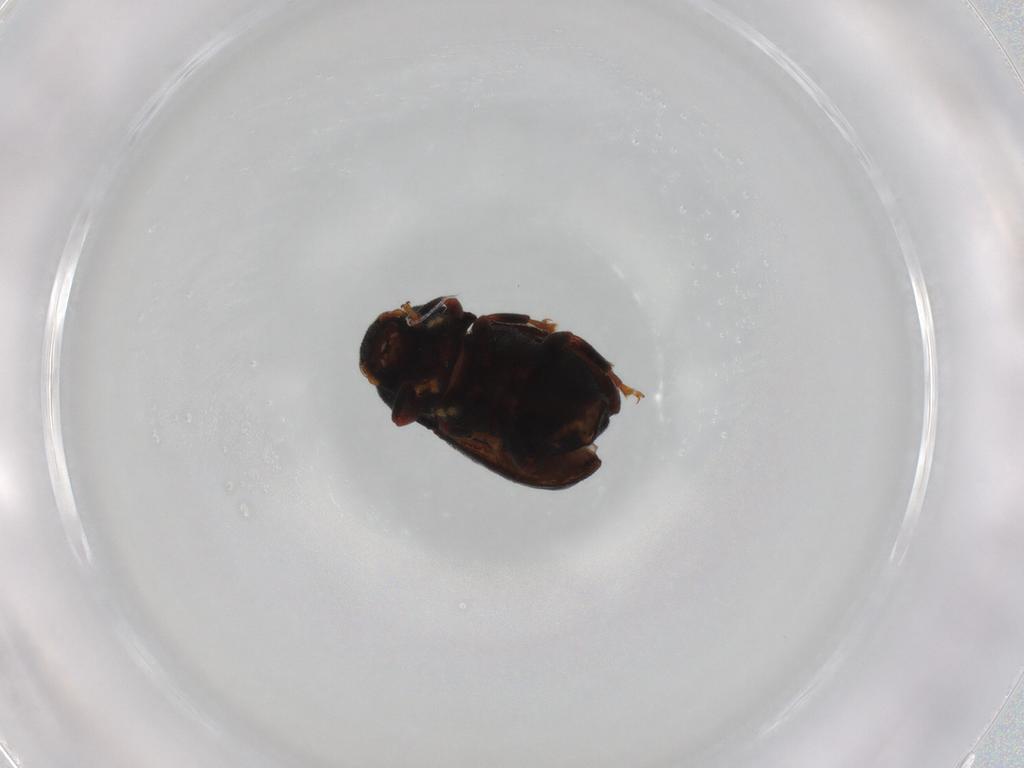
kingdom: Animalia
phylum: Arthropoda
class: Insecta
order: Coleoptera
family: Anthribidae
